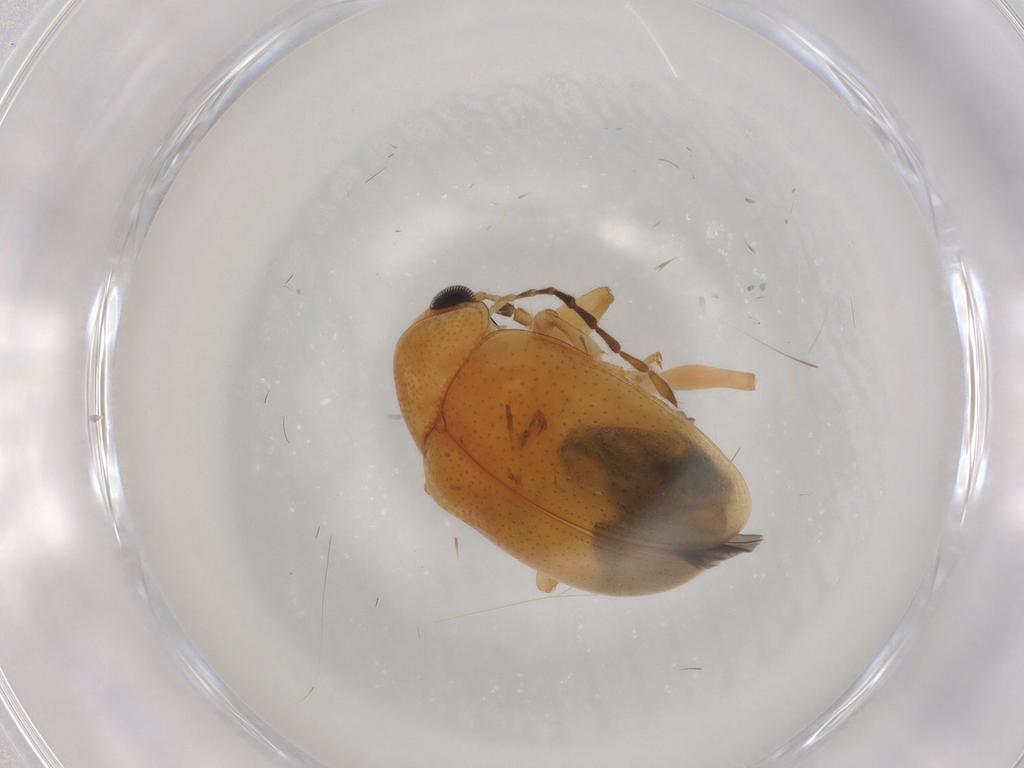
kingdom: Animalia
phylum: Arthropoda
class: Insecta
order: Coleoptera
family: Chrysomelidae
